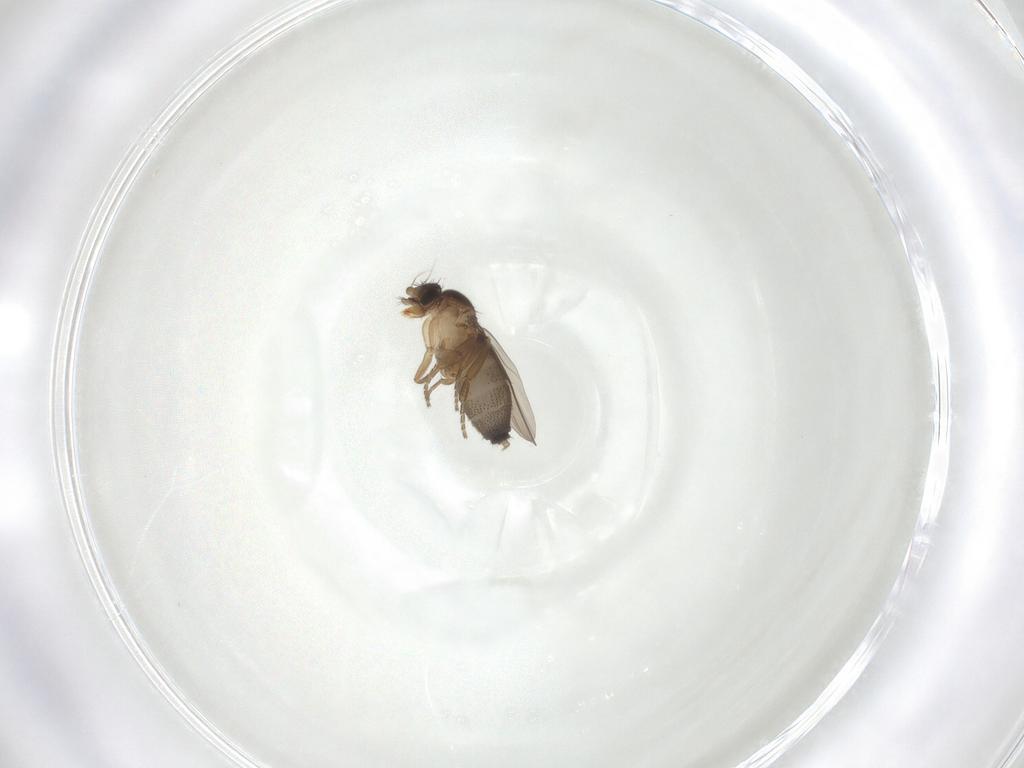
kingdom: Animalia
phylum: Arthropoda
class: Insecta
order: Diptera
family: Phoridae
